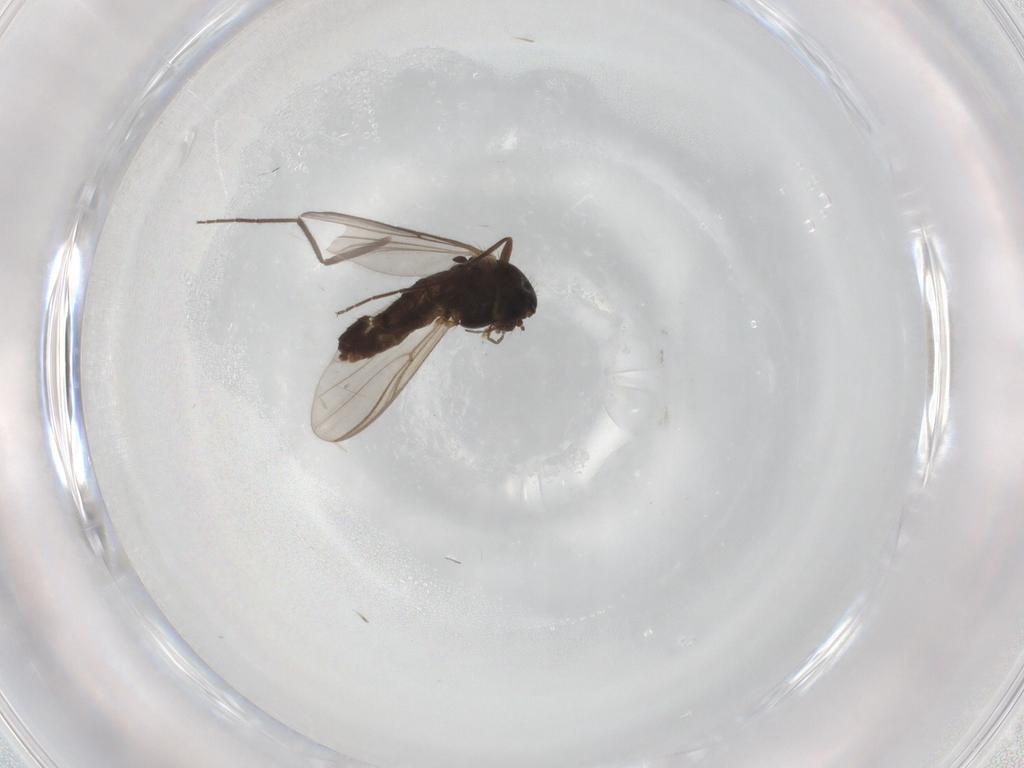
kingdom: Animalia
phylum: Arthropoda
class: Insecta
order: Diptera
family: Chironomidae
